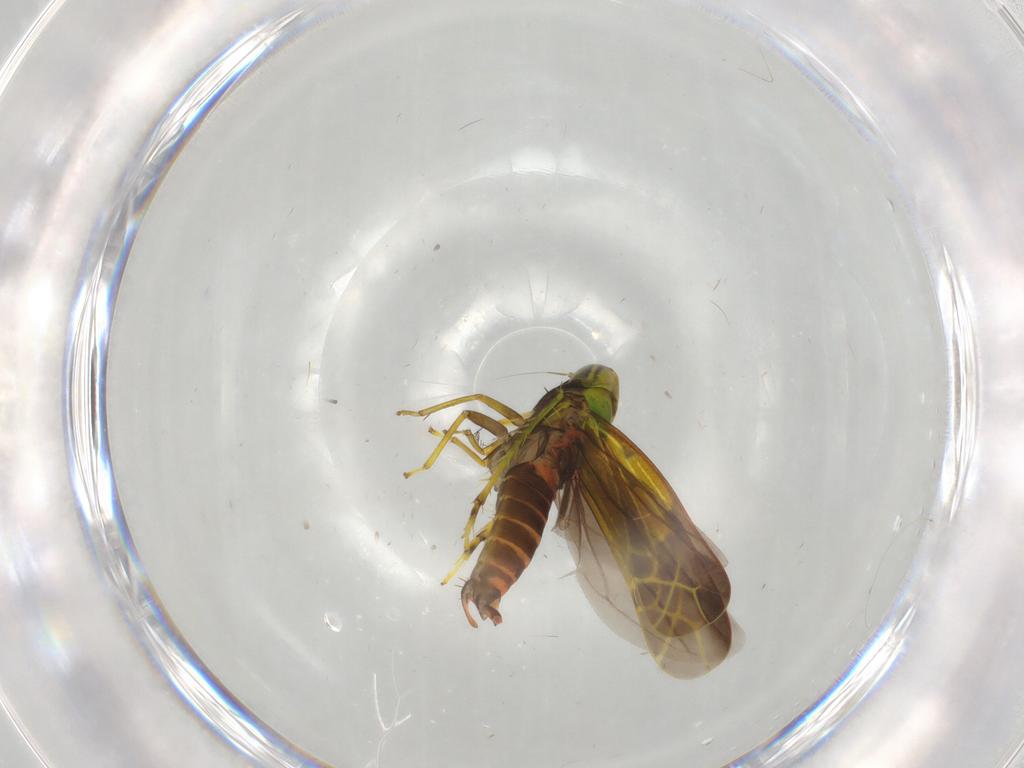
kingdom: Animalia
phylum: Arthropoda
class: Insecta
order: Hemiptera
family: Cicadellidae
